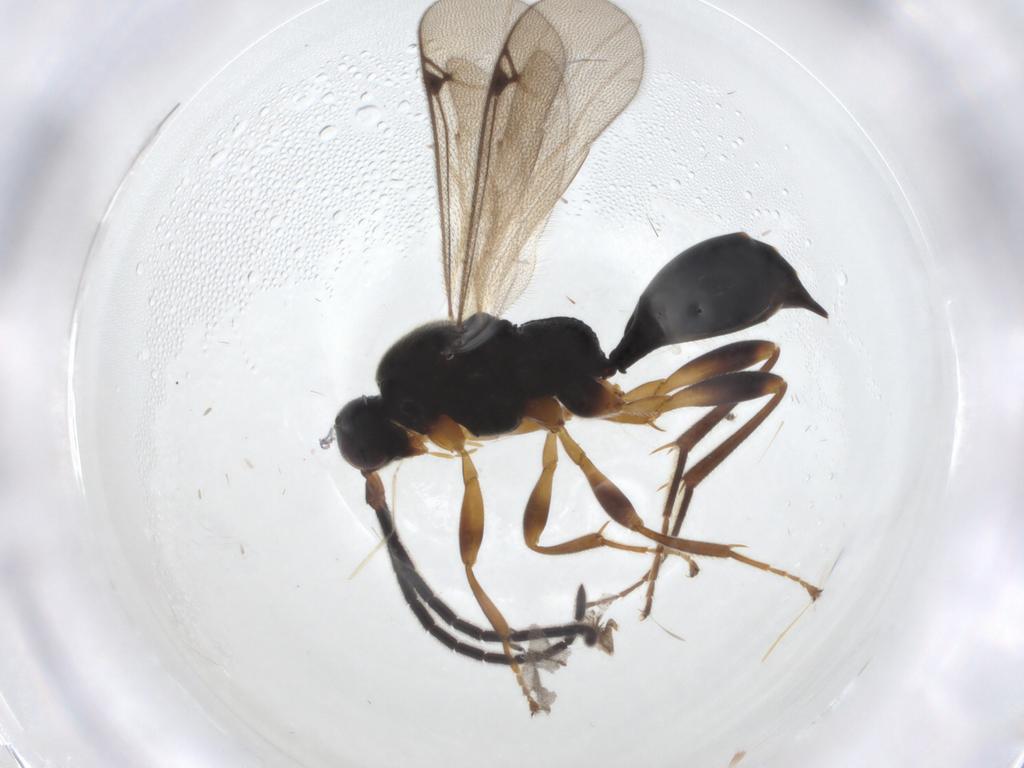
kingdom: Animalia
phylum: Arthropoda
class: Insecta
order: Hymenoptera
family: Proctotrupidae
